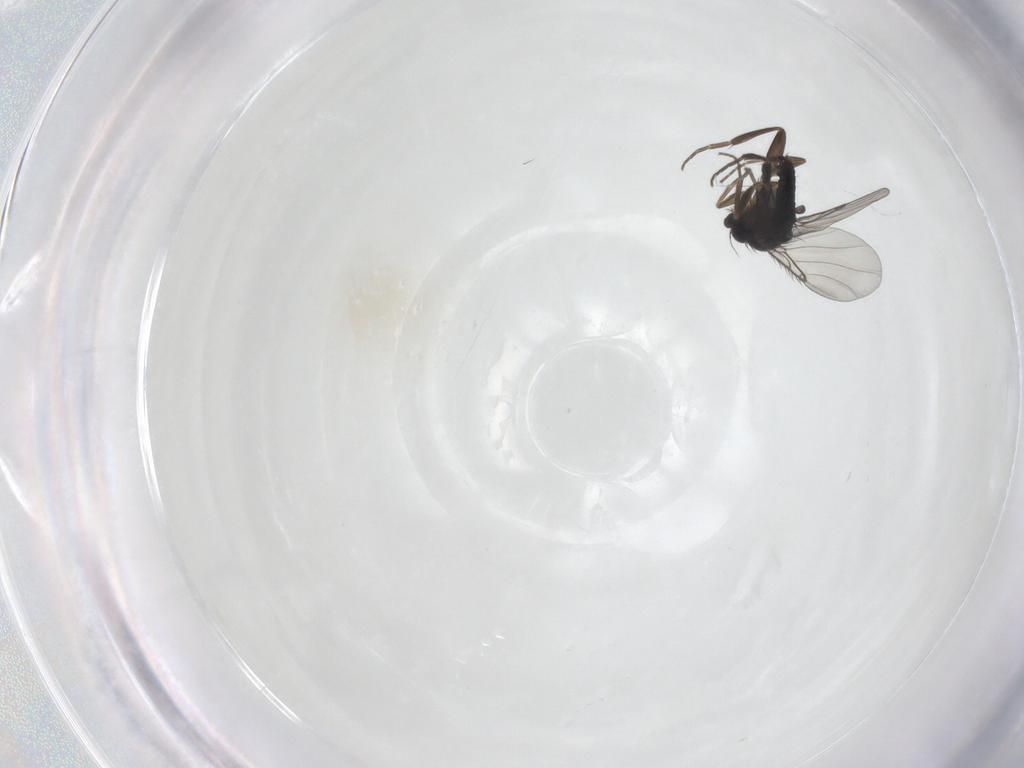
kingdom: Animalia
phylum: Arthropoda
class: Insecta
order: Diptera
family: Phoridae
